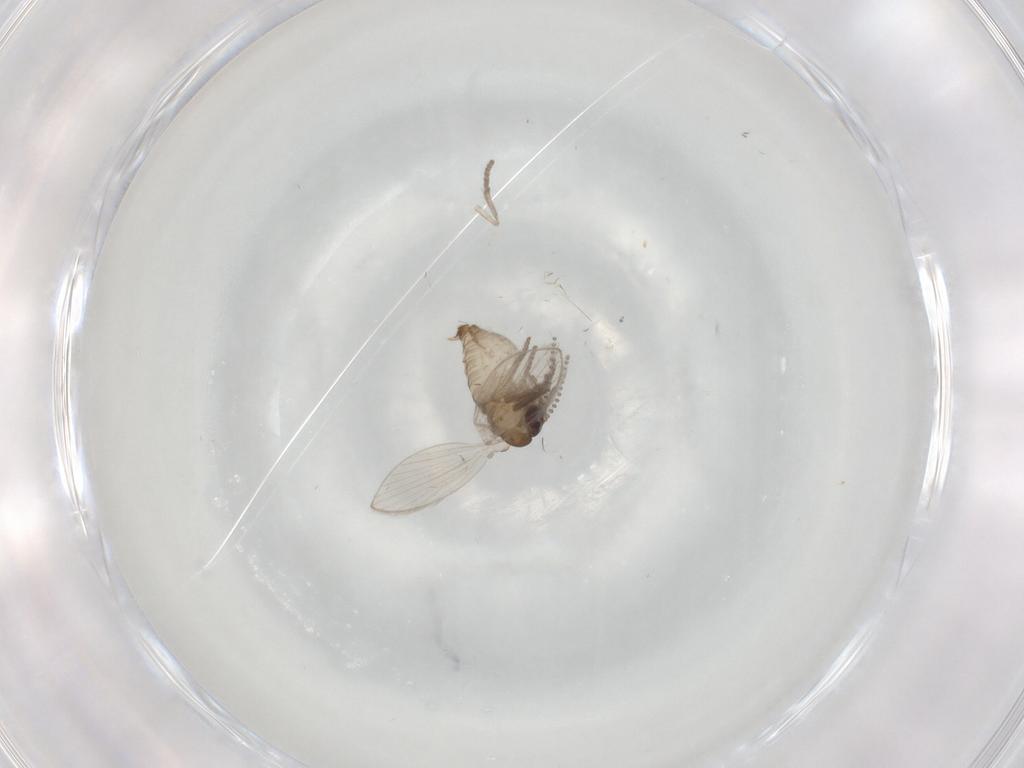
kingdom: Animalia
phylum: Arthropoda
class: Insecta
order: Diptera
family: Psychodidae
